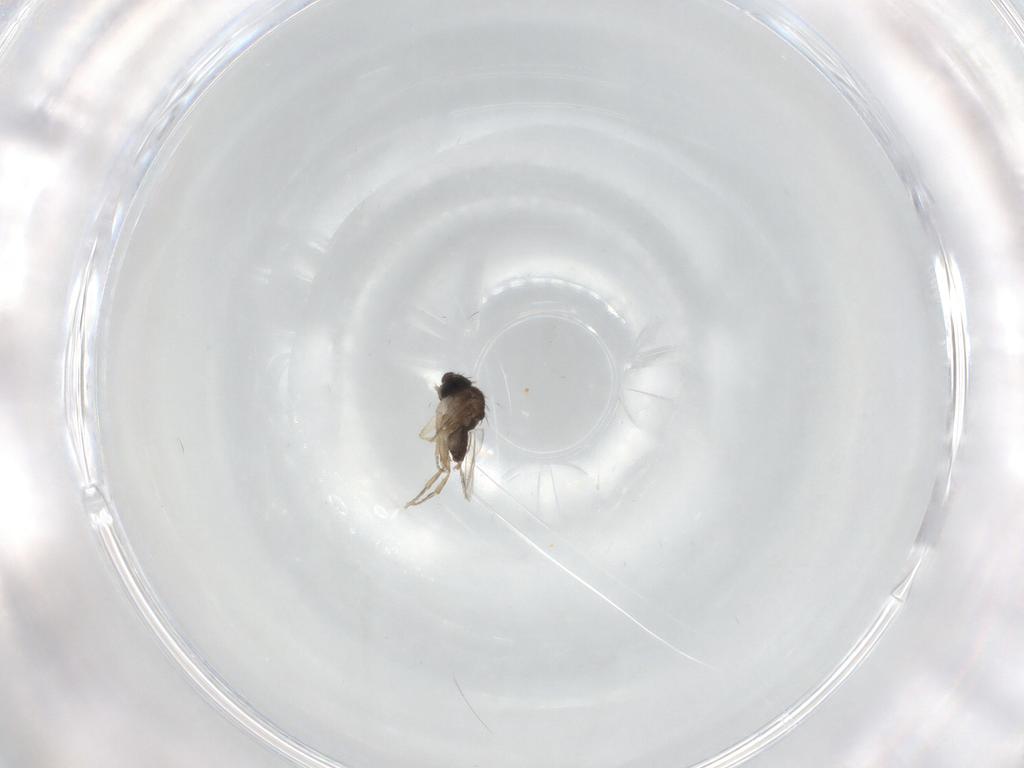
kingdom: Animalia
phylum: Arthropoda
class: Insecta
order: Diptera
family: Phoridae
